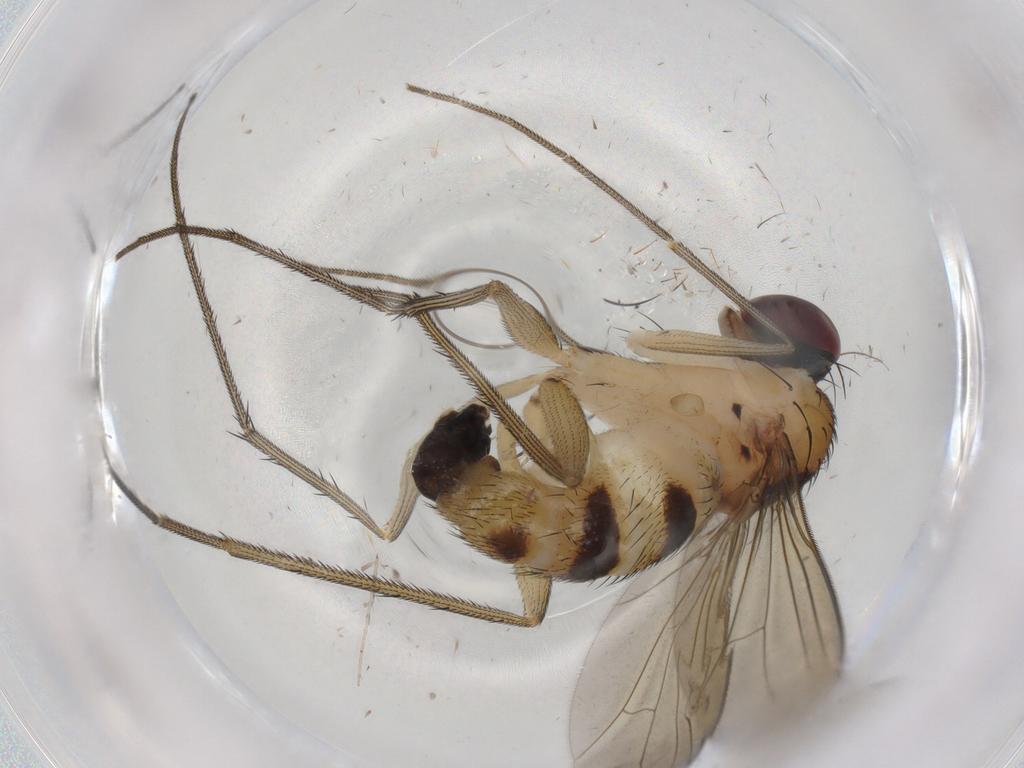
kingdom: Animalia
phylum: Arthropoda
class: Insecta
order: Diptera
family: Dolichopodidae
